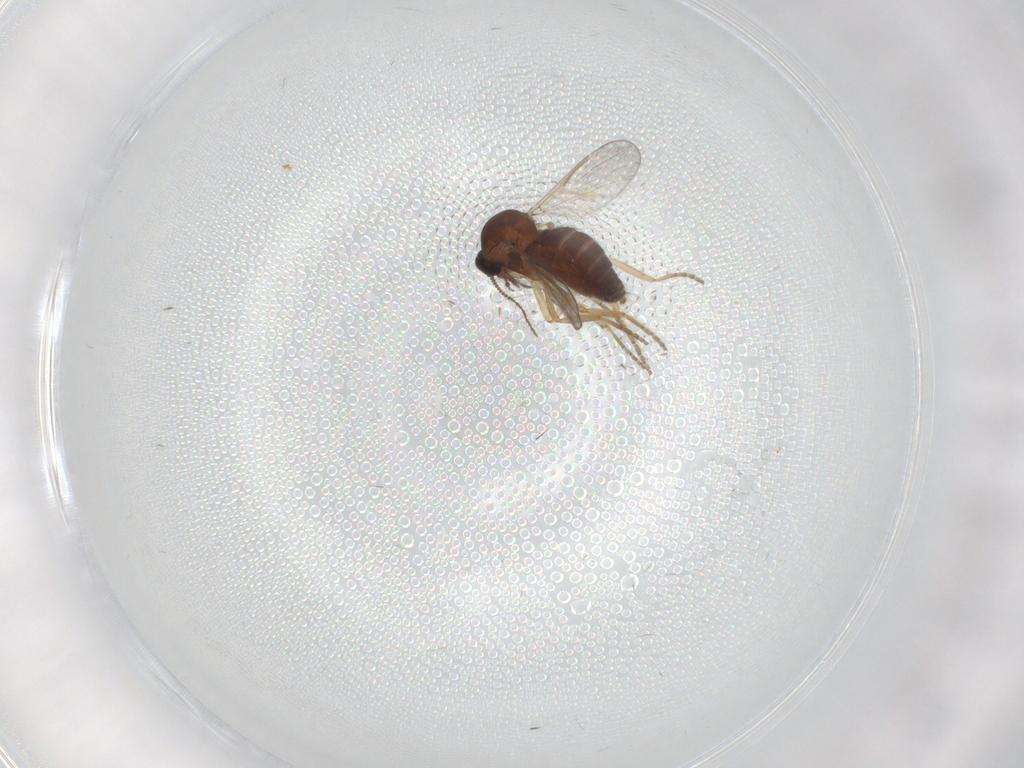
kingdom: Animalia
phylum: Arthropoda
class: Insecta
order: Diptera
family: Ceratopogonidae
